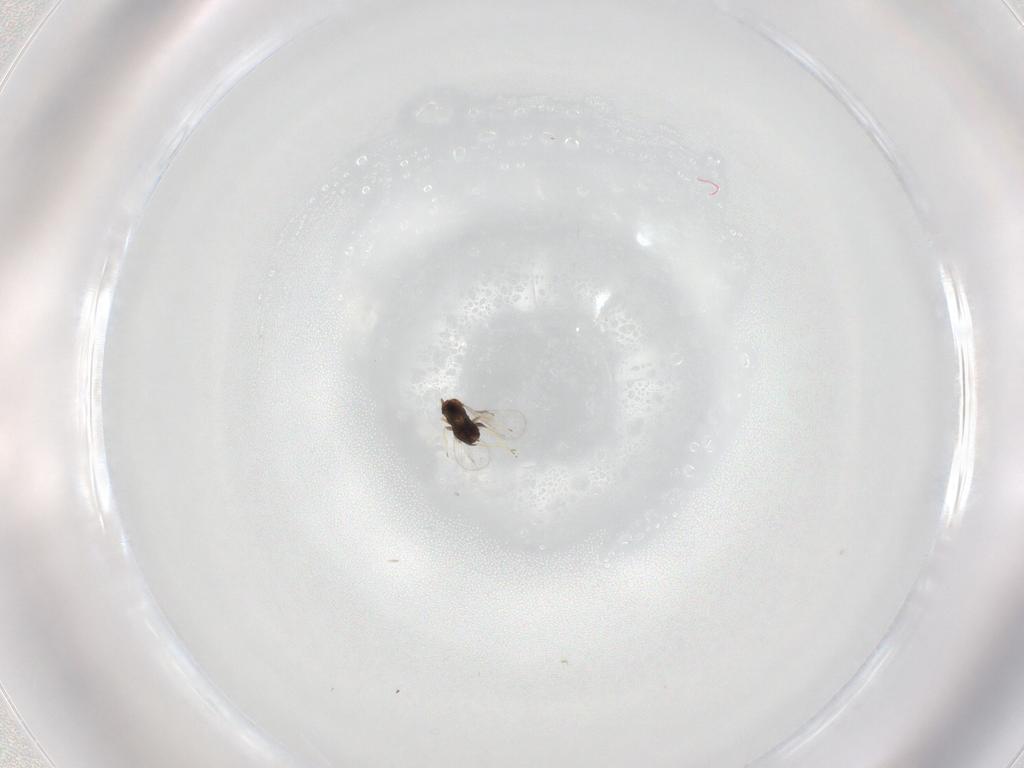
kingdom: Animalia
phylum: Arthropoda
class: Insecta
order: Hymenoptera
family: Trichogrammatidae
